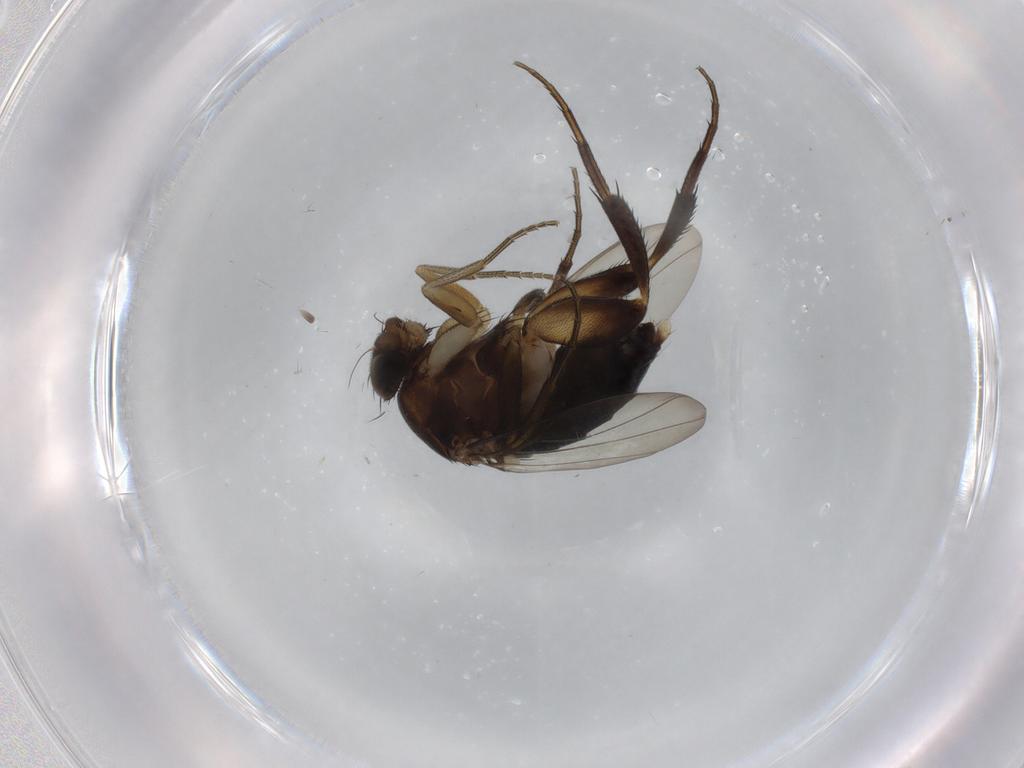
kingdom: Animalia
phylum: Arthropoda
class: Insecta
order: Diptera
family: Phoridae
